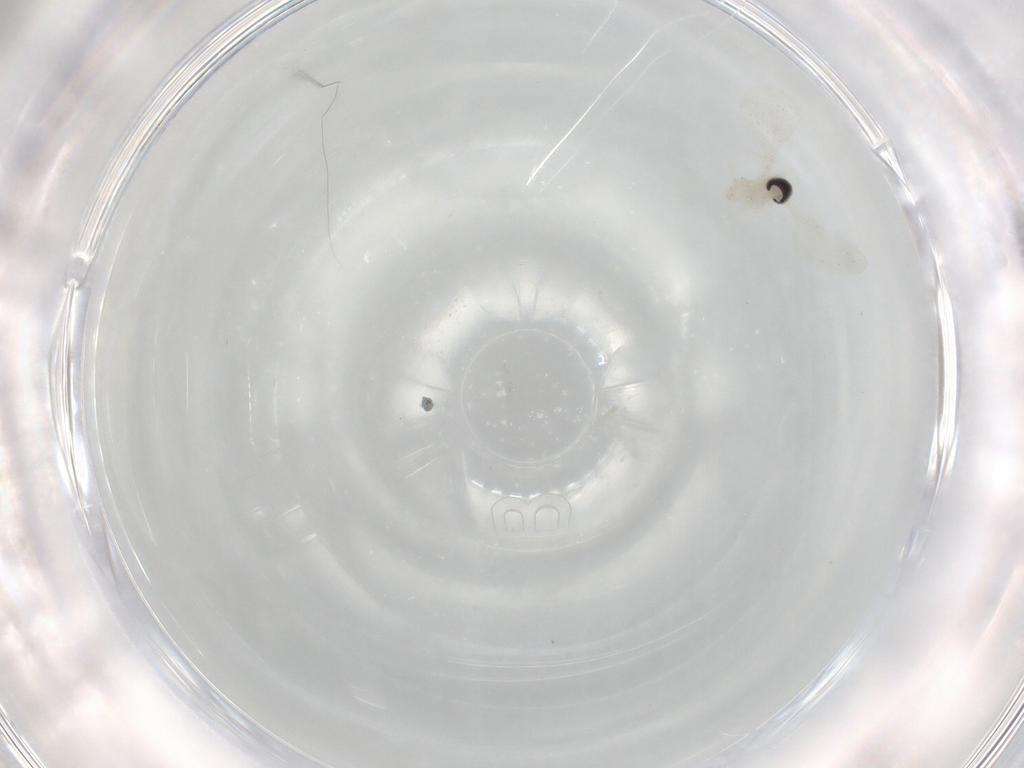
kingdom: Animalia
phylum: Arthropoda
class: Insecta
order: Diptera
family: Cecidomyiidae
